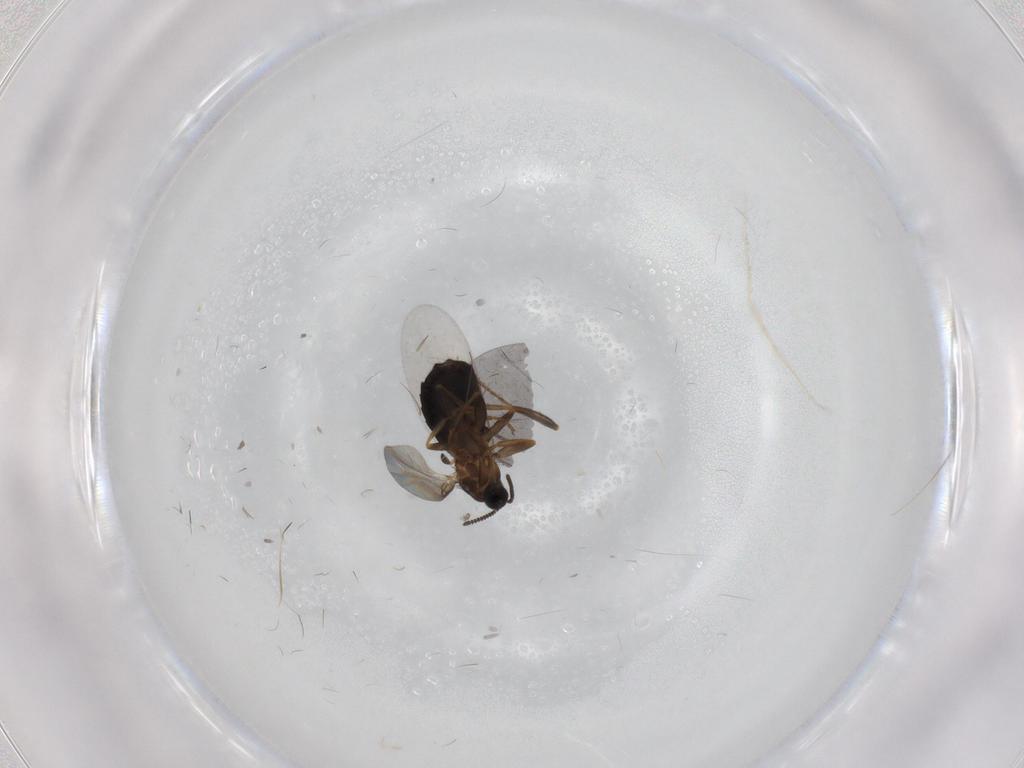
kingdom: Animalia
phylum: Arthropoda
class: Insecta
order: Diptera
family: Scatopsidae
